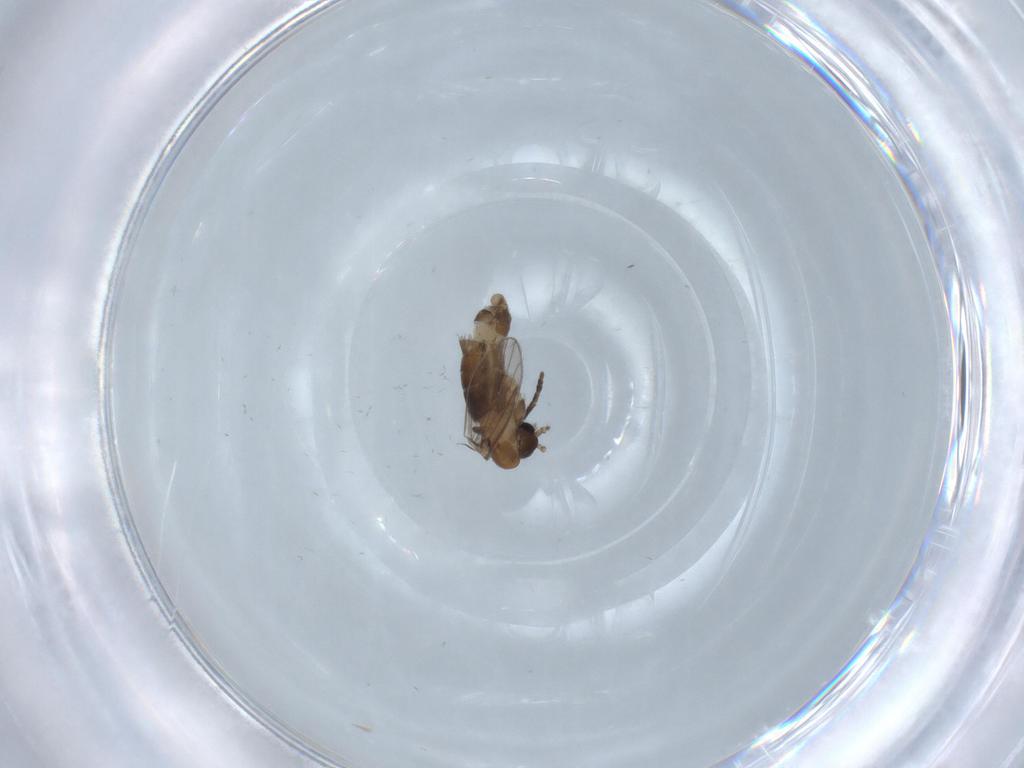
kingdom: Animalia
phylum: Arthropoda
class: Insecta
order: Diptera
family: Psychodidae
